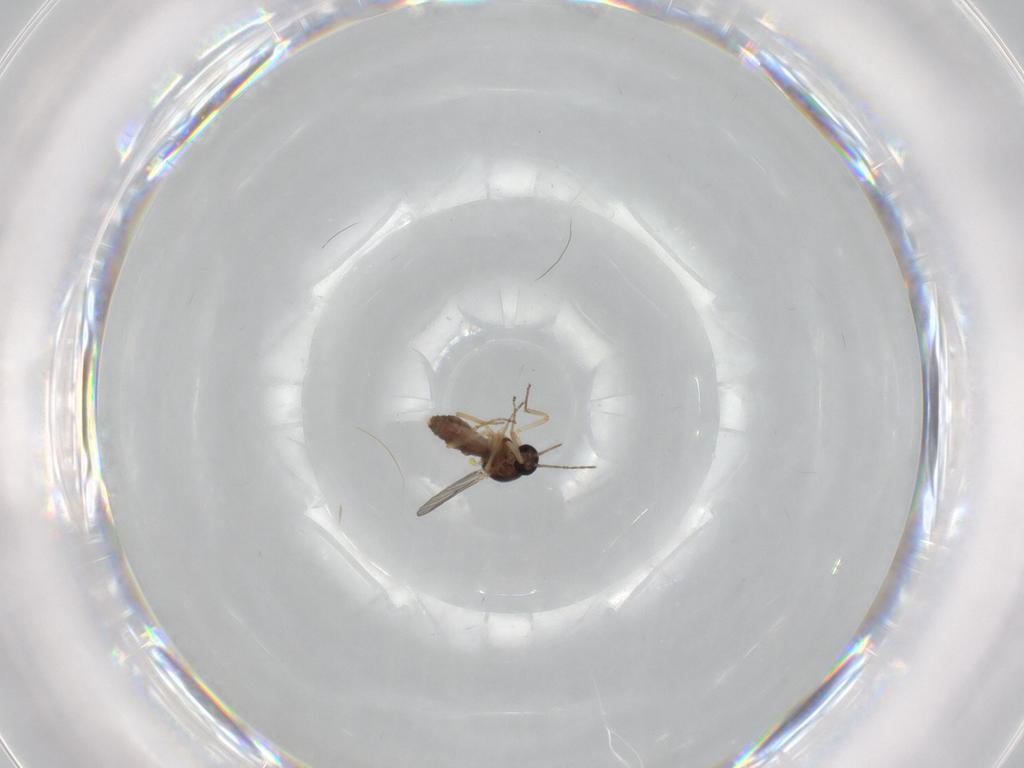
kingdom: Animalia
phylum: Arthropoda
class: Insecta
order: Diptera
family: Ceratopogonidae
